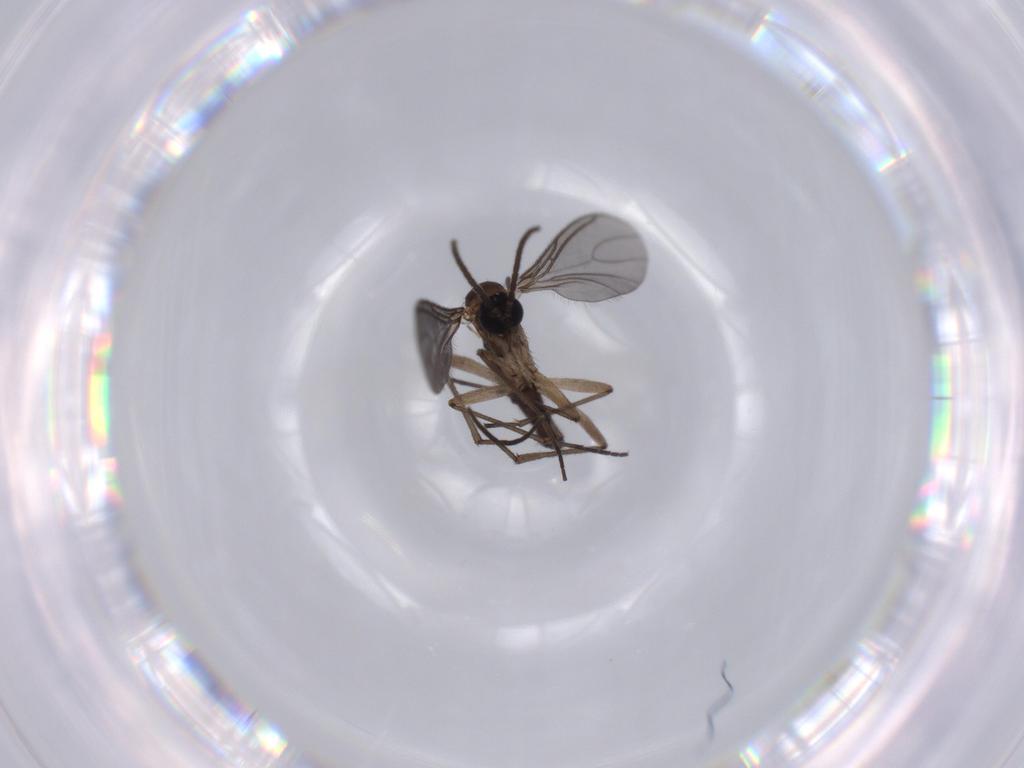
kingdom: Animalia
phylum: Arthropoda
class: Insecta
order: Diptera
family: Sciaridae
